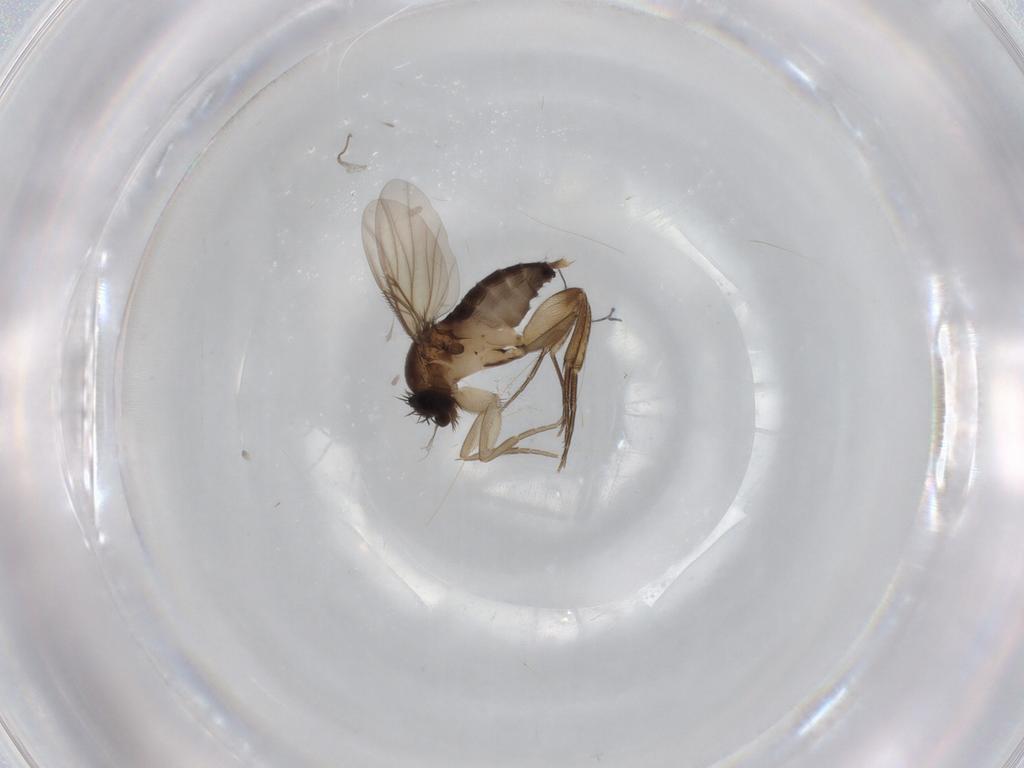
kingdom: Animalia
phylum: Arthropoda
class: Insecta
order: Diptera
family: Phoridae
